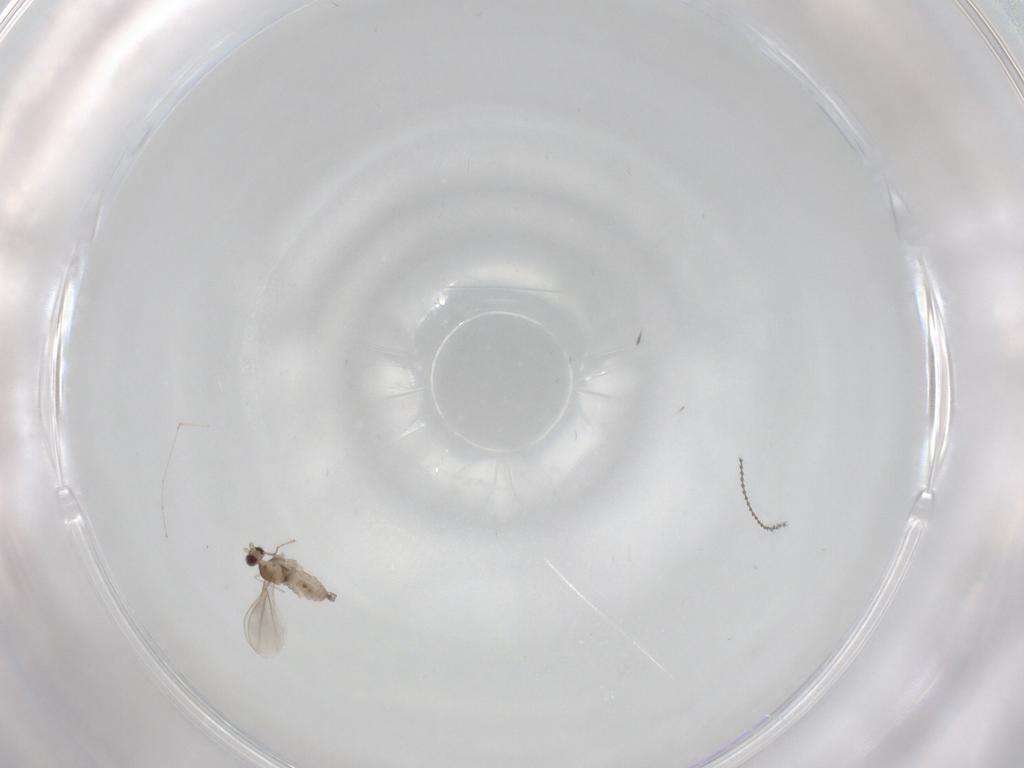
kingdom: Animalia
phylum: Arthropoda
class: Insecta
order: Diptera
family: Cecidomyiidae
